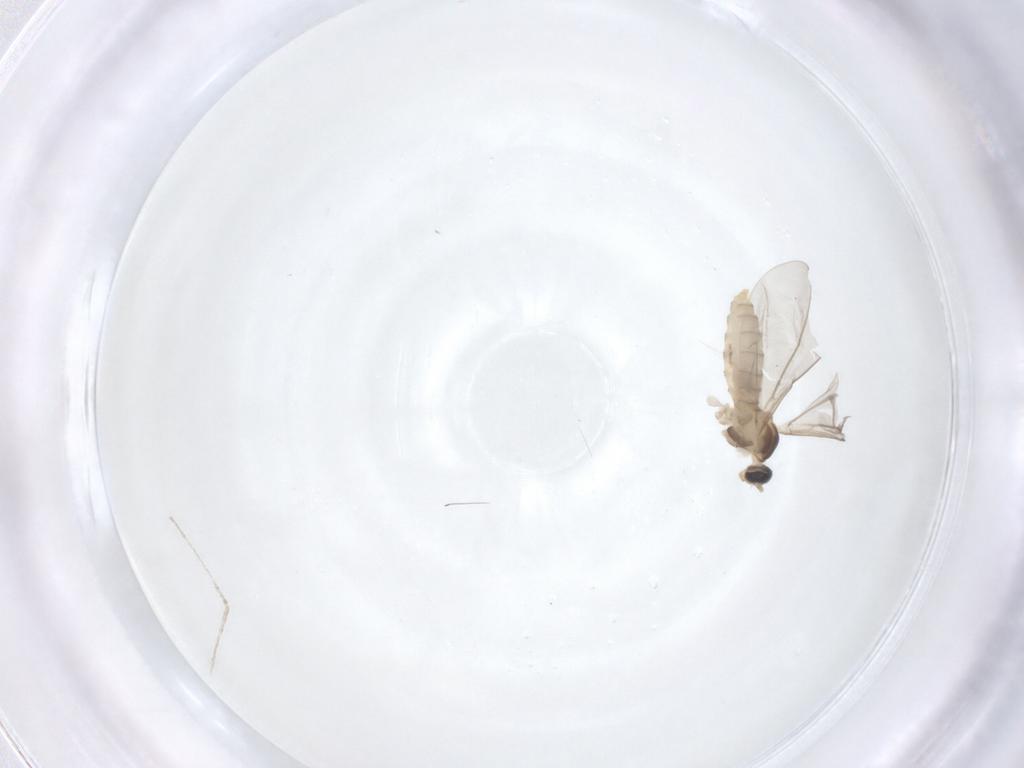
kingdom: Animalia
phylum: Arthropoda
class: Insecta
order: Diptera
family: Cecidomyiidae
